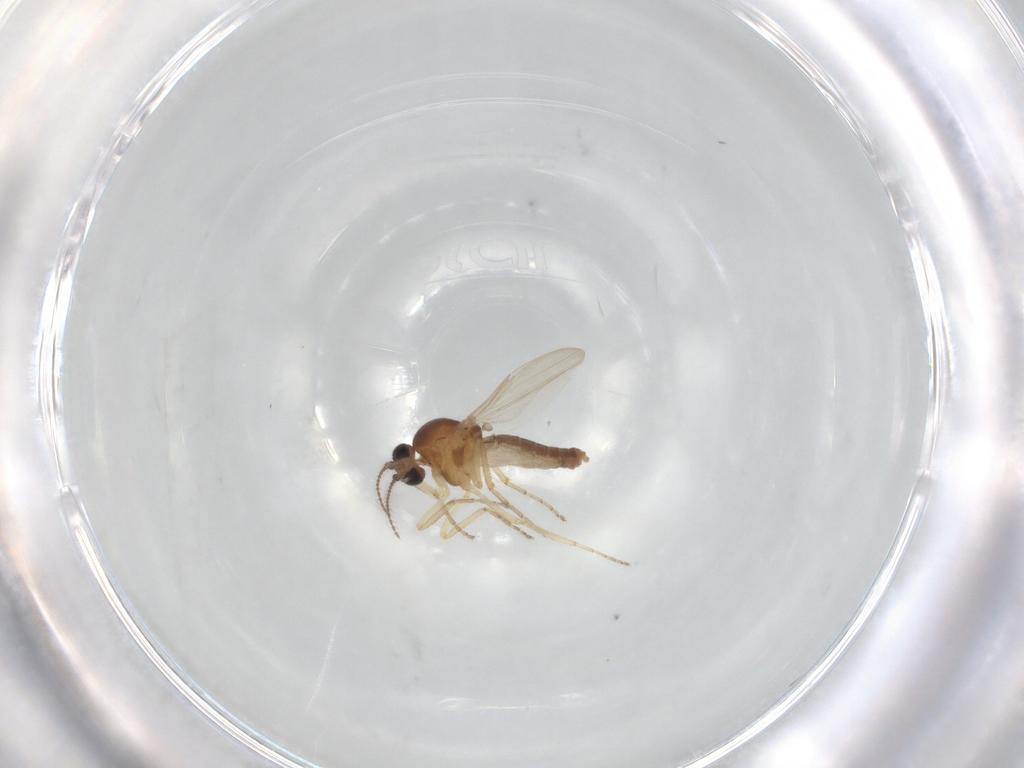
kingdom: Animalia
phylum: Arthropoda
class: Insecta
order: Diptera
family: Ceratopogonidae
